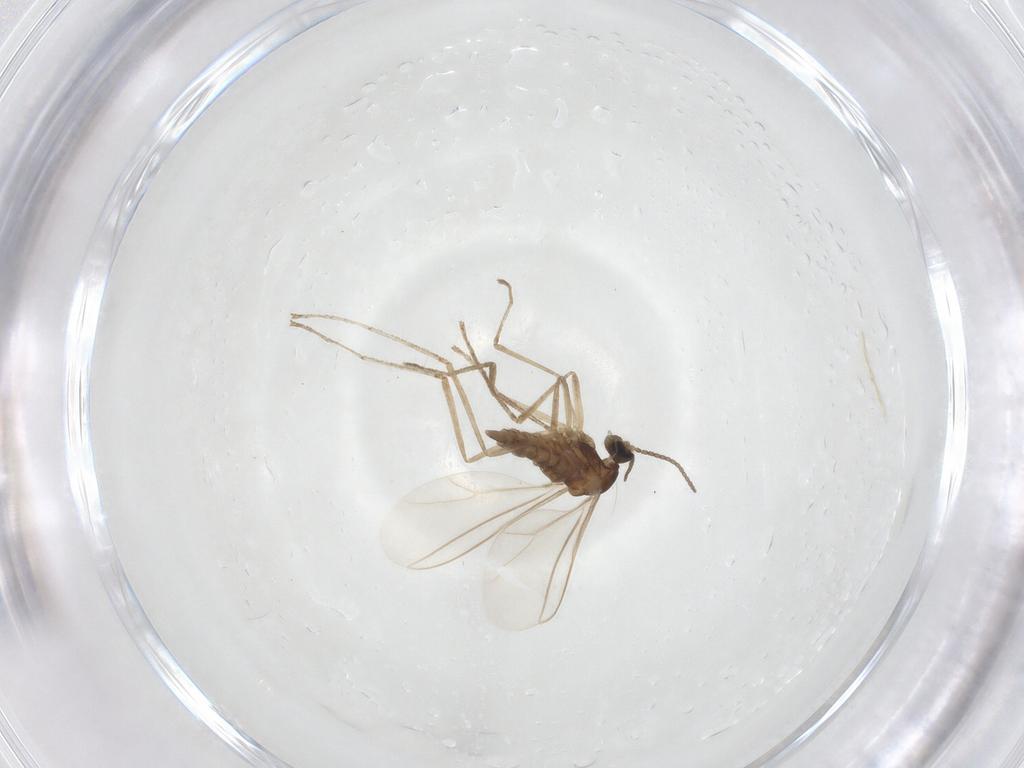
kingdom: Animalia
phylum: Arthropoda
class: Insecta
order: Diptera
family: Cecidomyiidae
